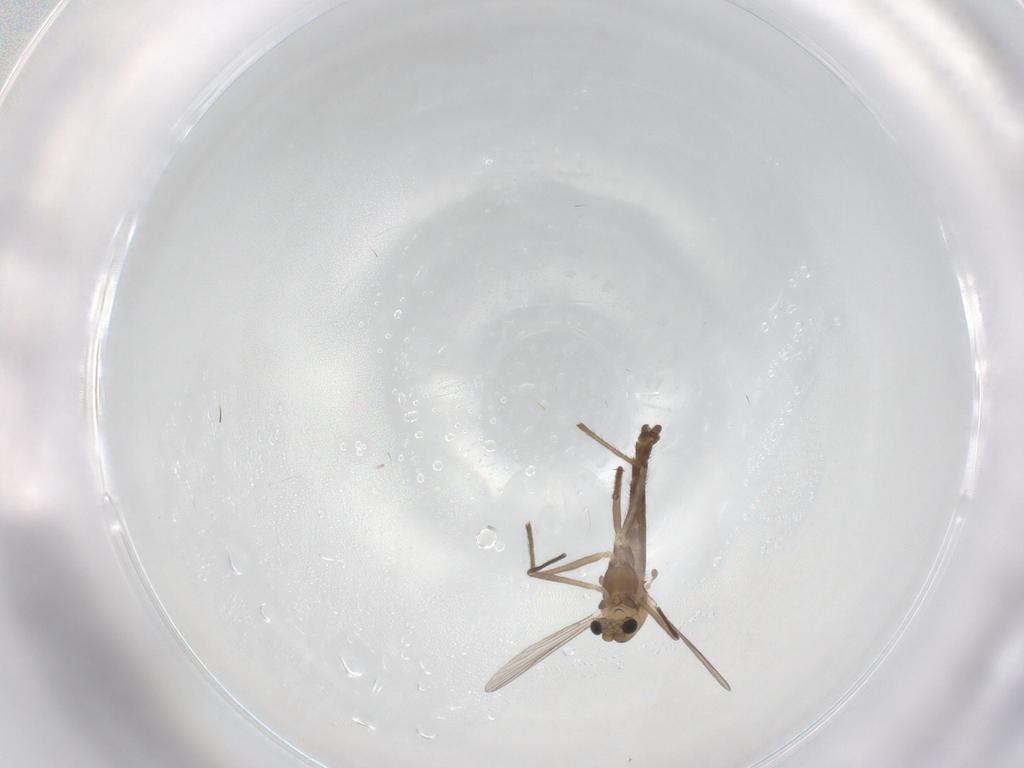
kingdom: Animalia
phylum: Arthropoda
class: Insecta
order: Diptera
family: Chironomidae
